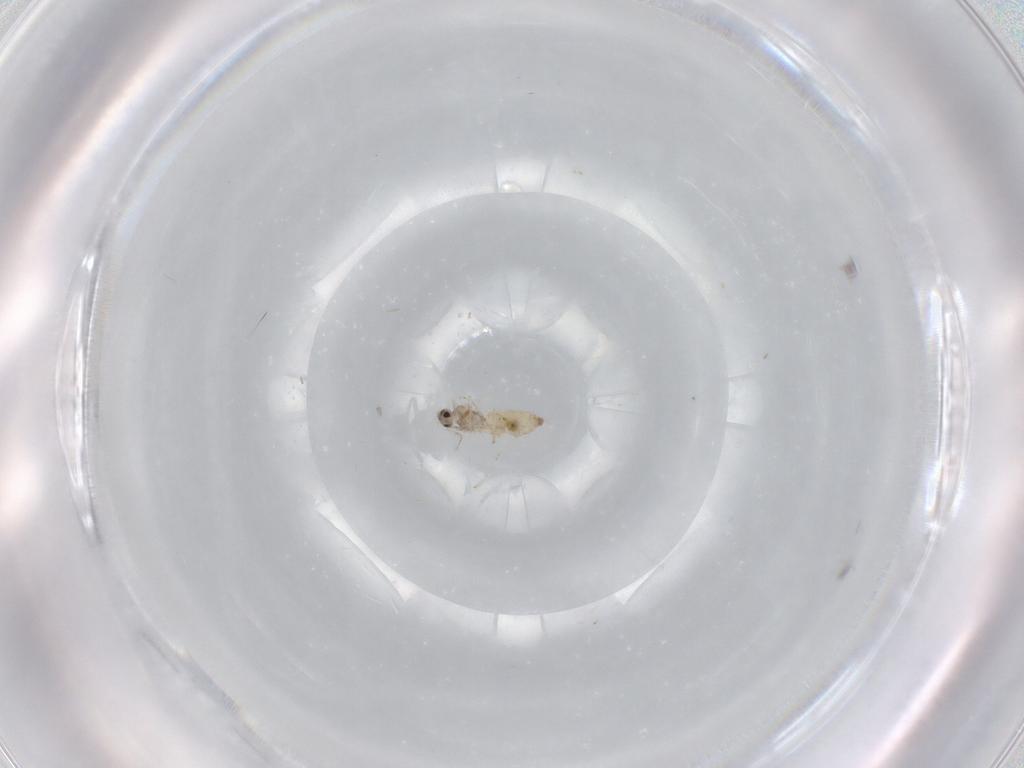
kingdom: Animalia
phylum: Arthropoda
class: Insecta
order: Diptera
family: Cecidomyiidae
